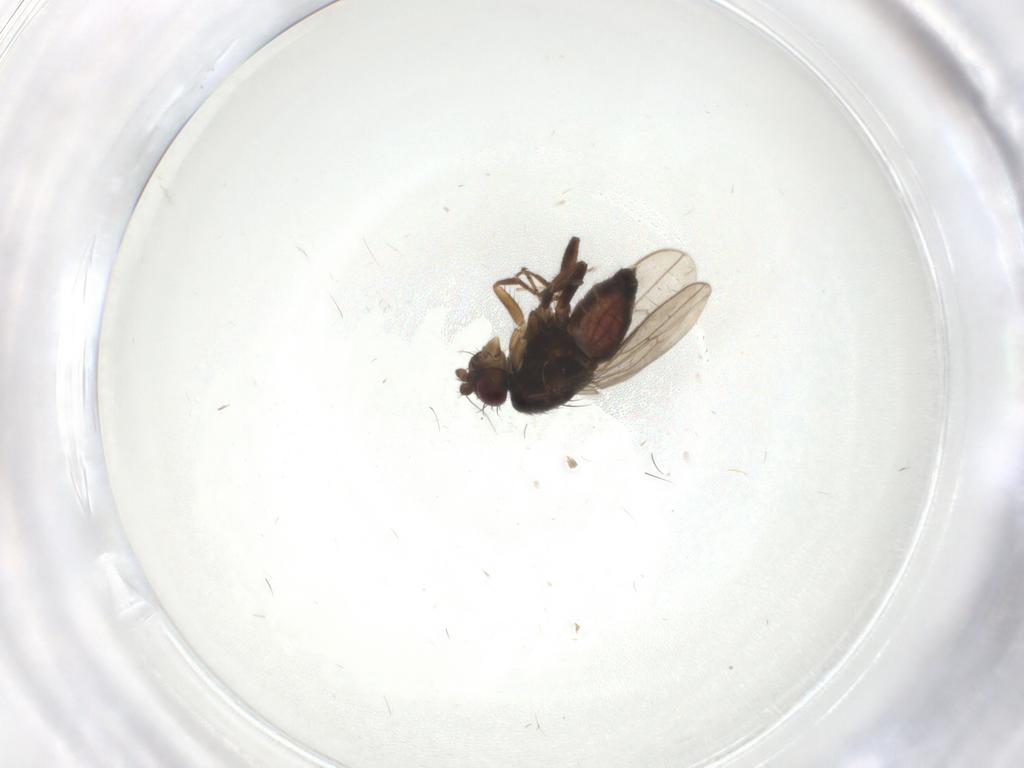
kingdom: Animalia
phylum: Arthropoda
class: Insecta
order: Diptera
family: Sphaeroceridae
